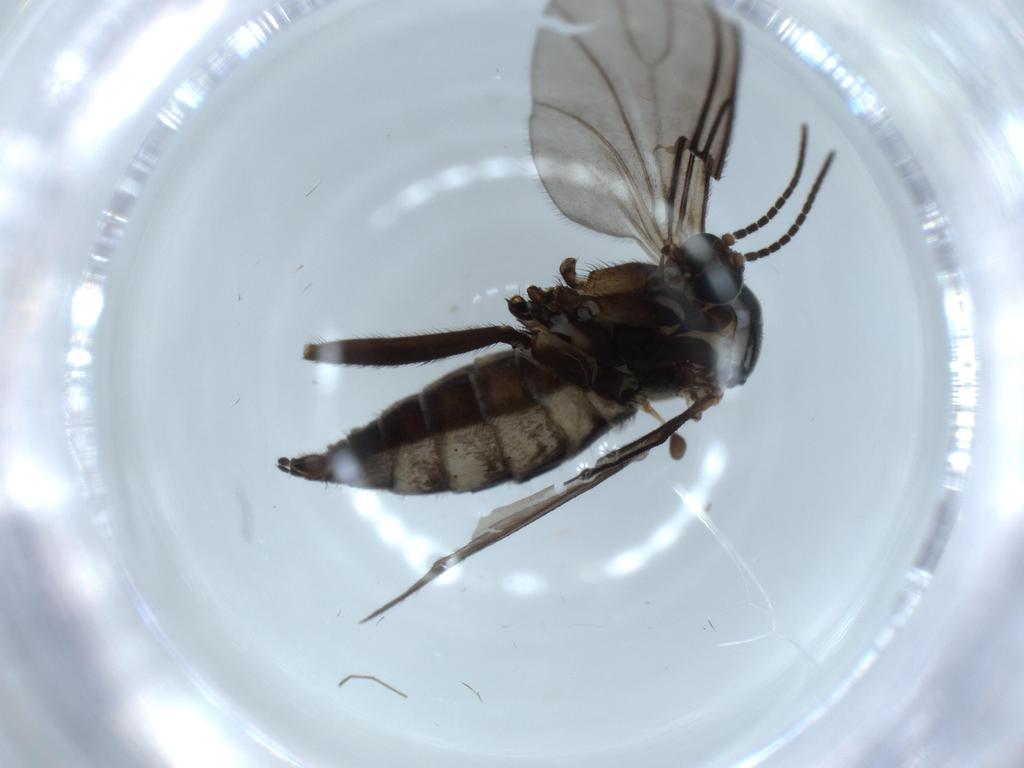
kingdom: Animalia
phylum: Arthropoda
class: Insecta
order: Diptera
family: Sciaridae
